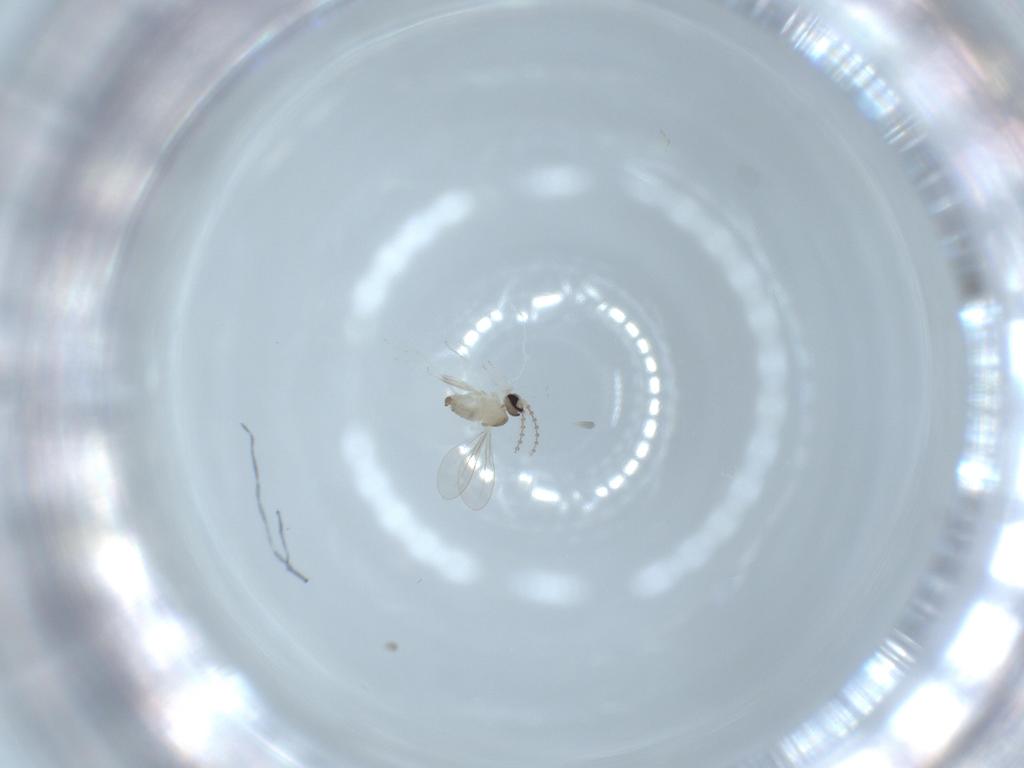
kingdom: Animalia
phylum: Arthropoda
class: Insecta
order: Diptera
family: Cecidomyiidae
